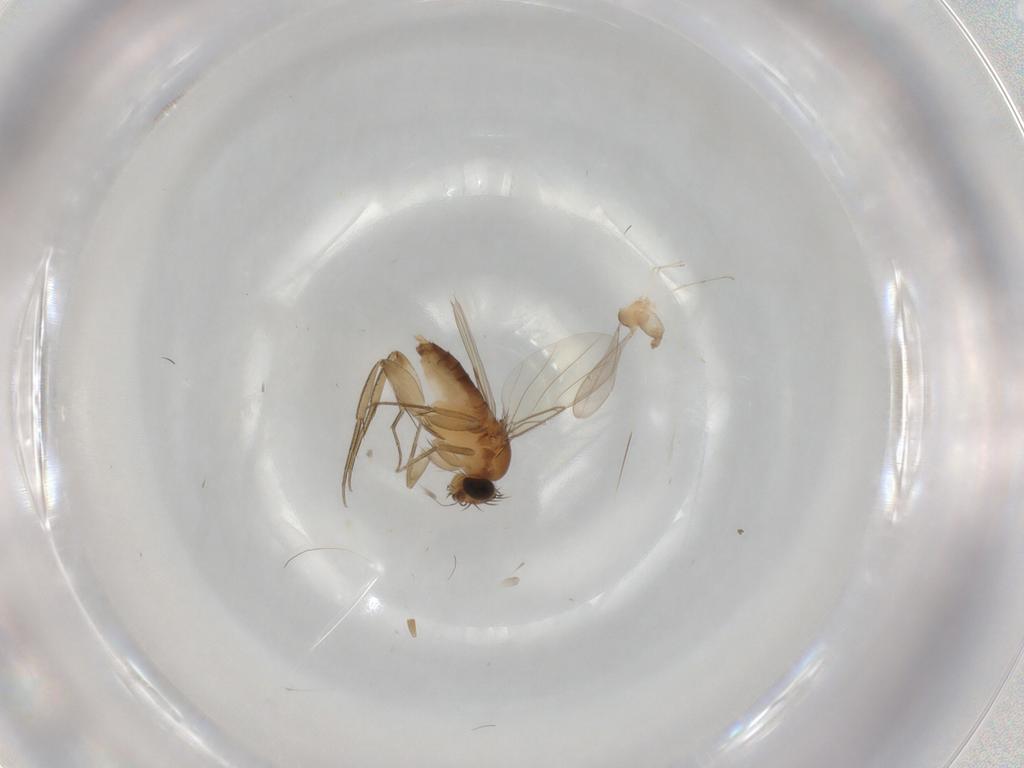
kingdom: Animalia
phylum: Arthropoda
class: Insecta
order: Diptera
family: Phoridae
